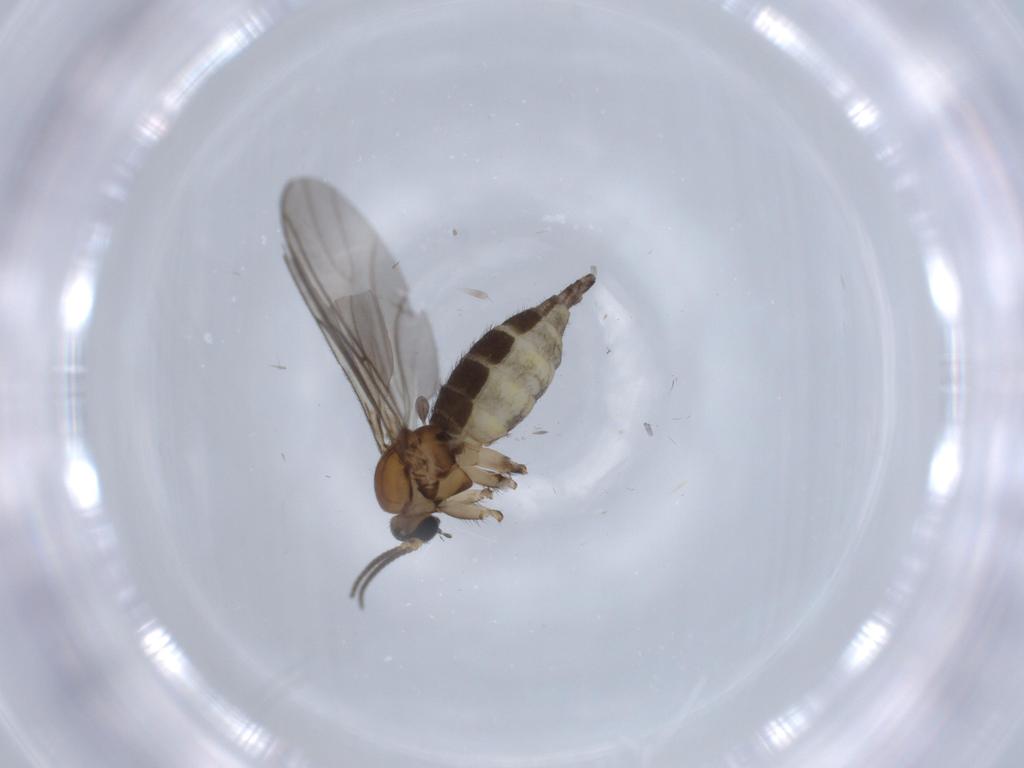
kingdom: Animalia
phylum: Arthropoda
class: Insecta
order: Diptera
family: Sciaridae
